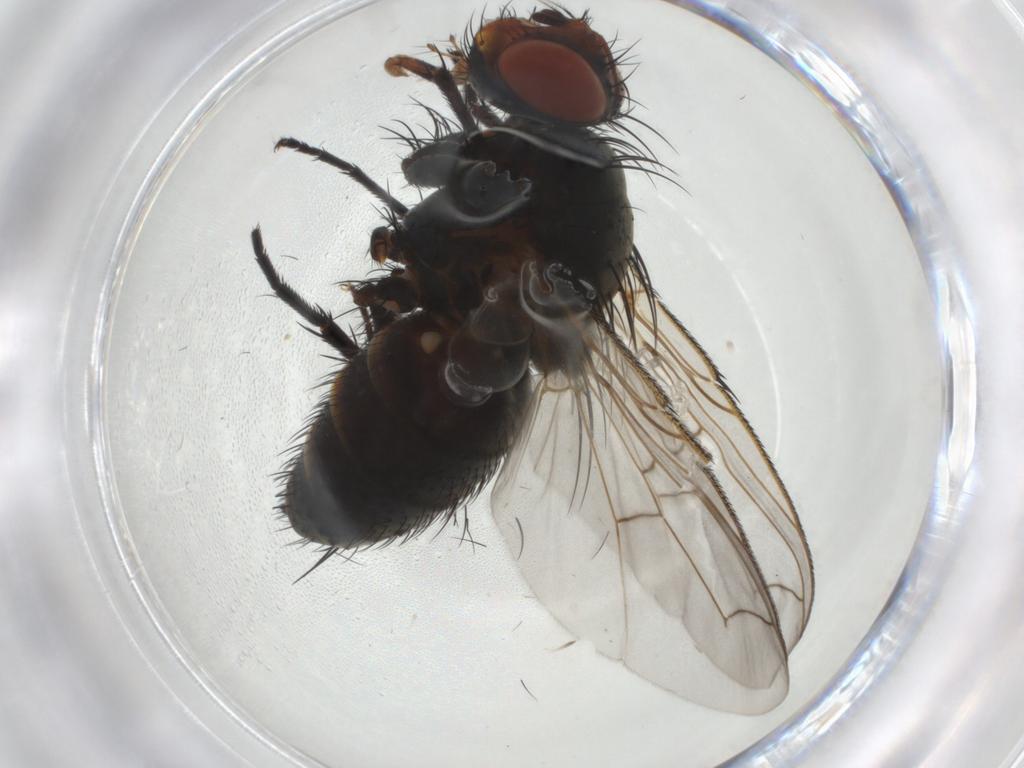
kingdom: Animalia
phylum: Arthropoda
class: Insecta
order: Diptera
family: Tachinidae
